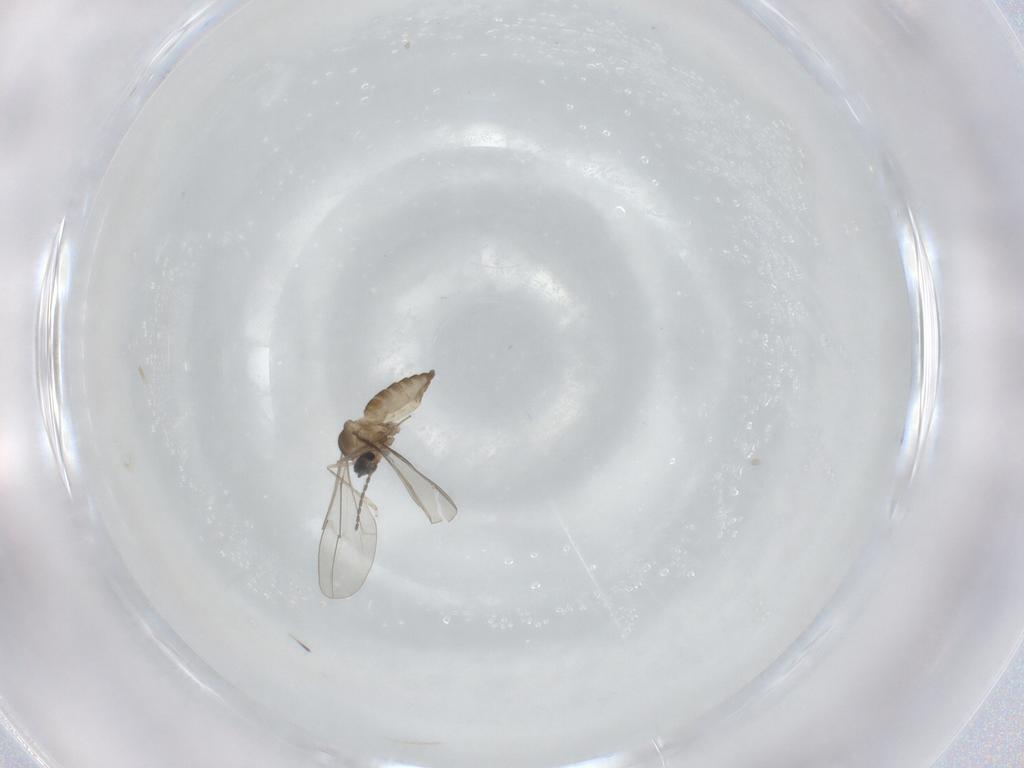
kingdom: Animalia
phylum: Arthropoda
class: Insecta
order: Diptera
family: Cecidomyiidae
